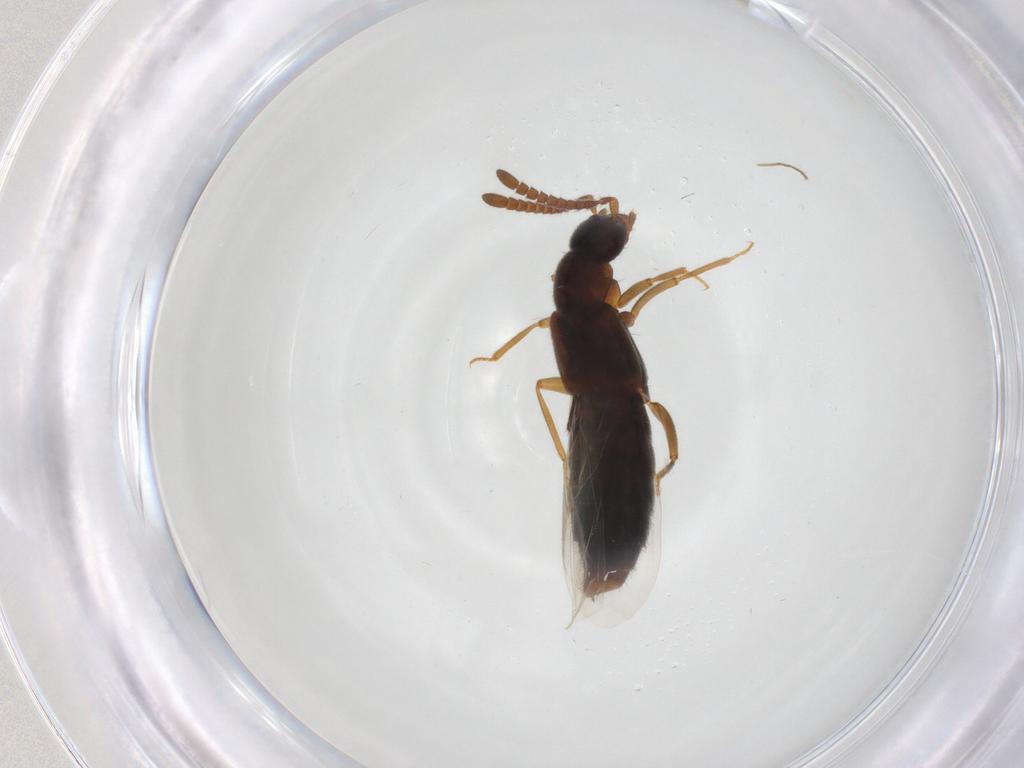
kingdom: Animalia
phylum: Arthropoda
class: Insecta
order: Coleoptera
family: Staphylinidae
